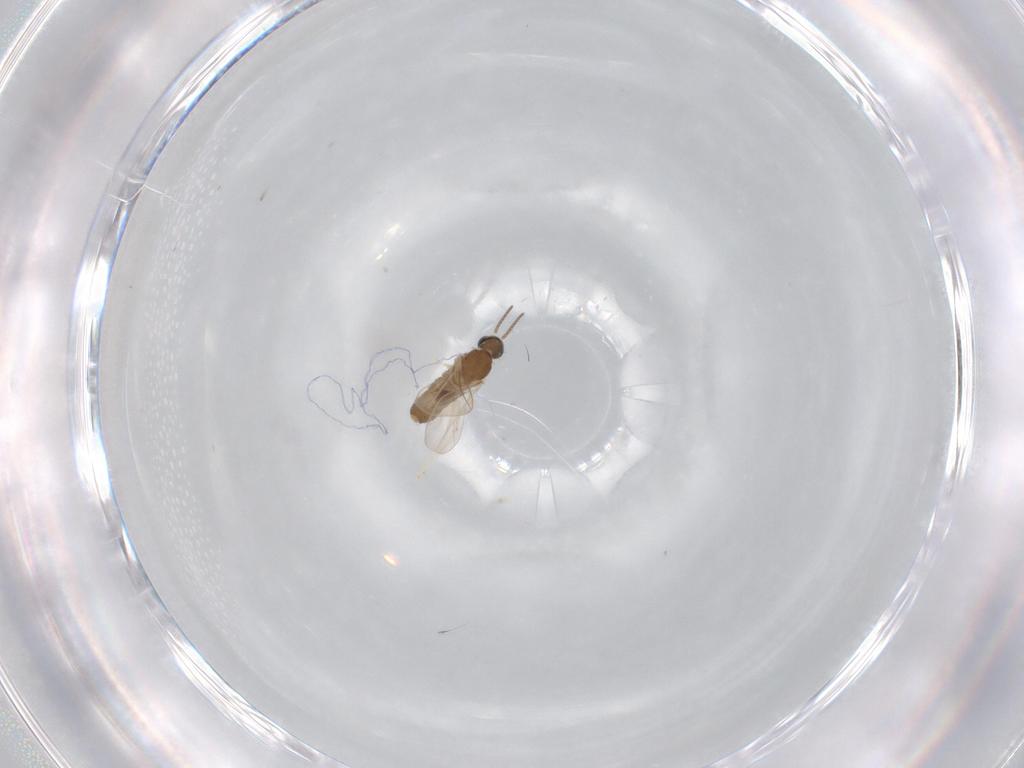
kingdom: Animalia
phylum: Arthropoda
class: Insecta
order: Diptera
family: Cecidomyiidae
